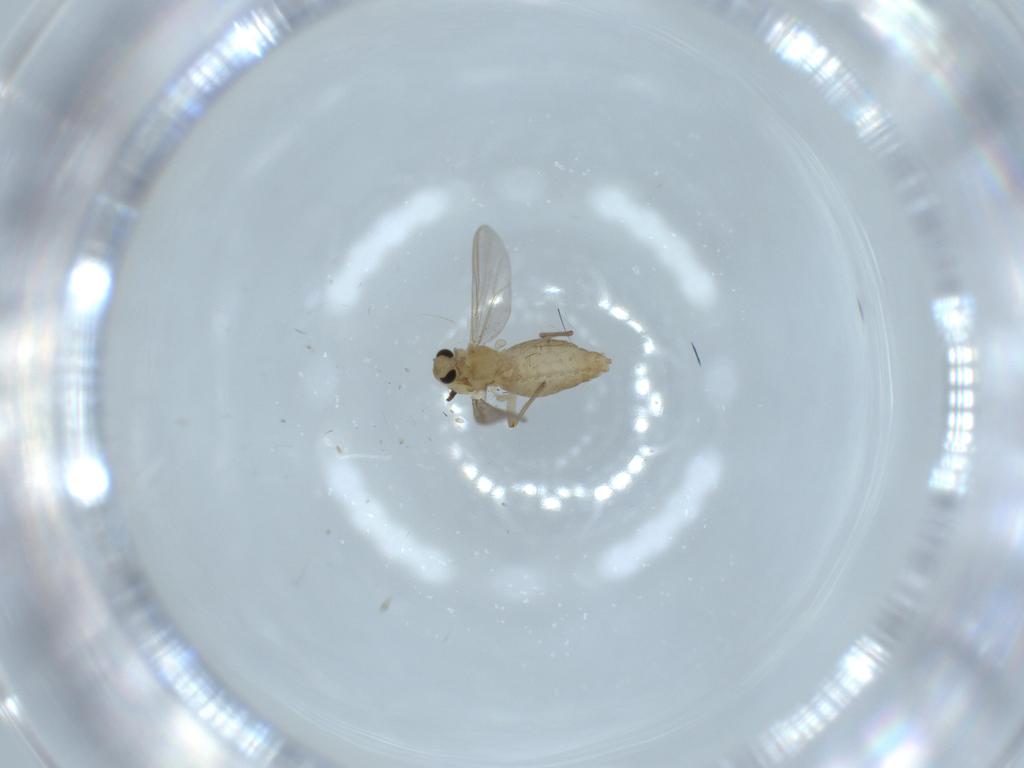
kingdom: Animalia
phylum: Arthropoda
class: Insecta
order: Diptera
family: Chironomidae
